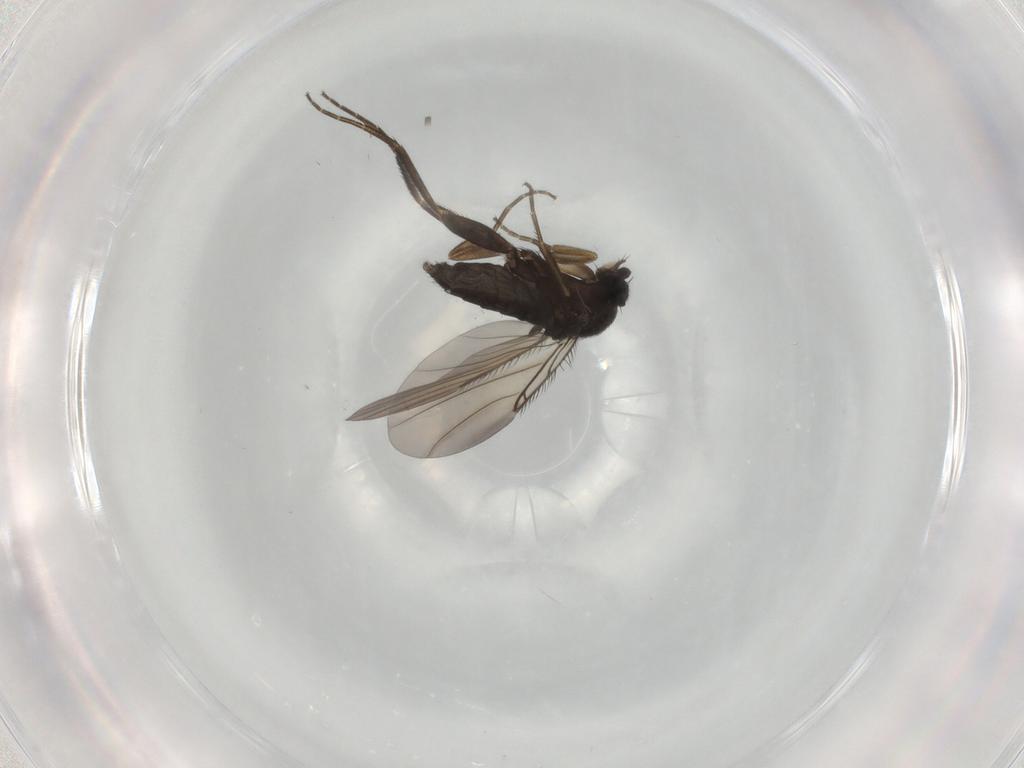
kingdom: Animalia
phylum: Arthropoda
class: Insecta
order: Diptera
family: Phoridae
